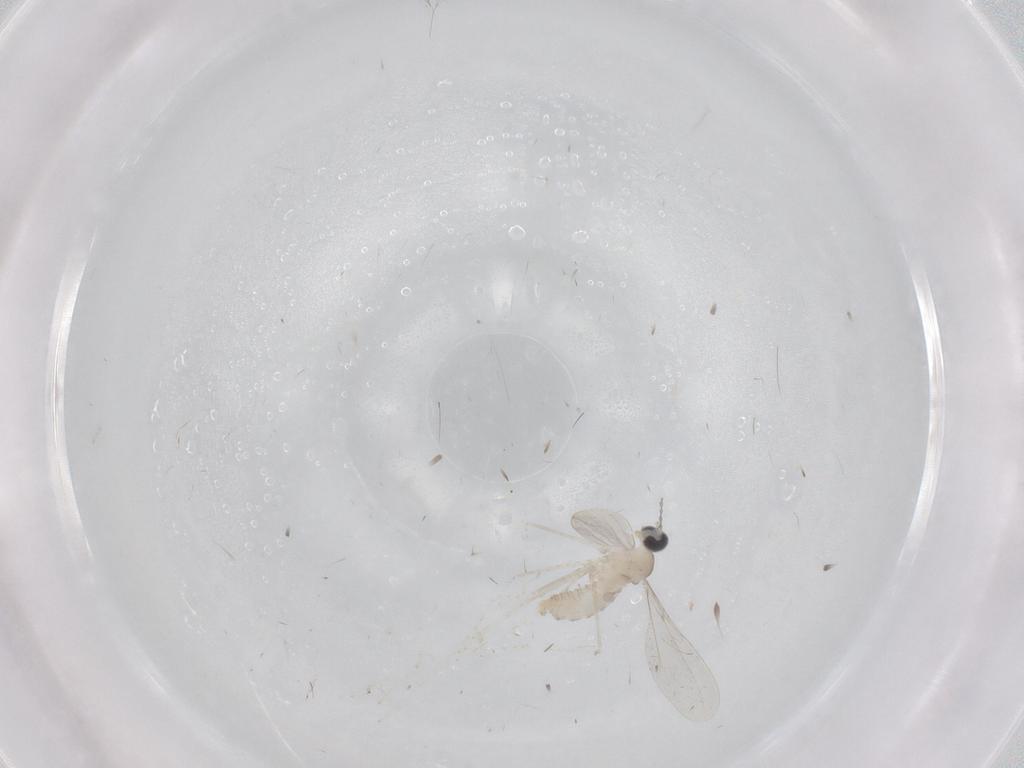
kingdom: Animalia
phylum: Arthropoda
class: Insecta
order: Diptera
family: Cecidomyiidae
